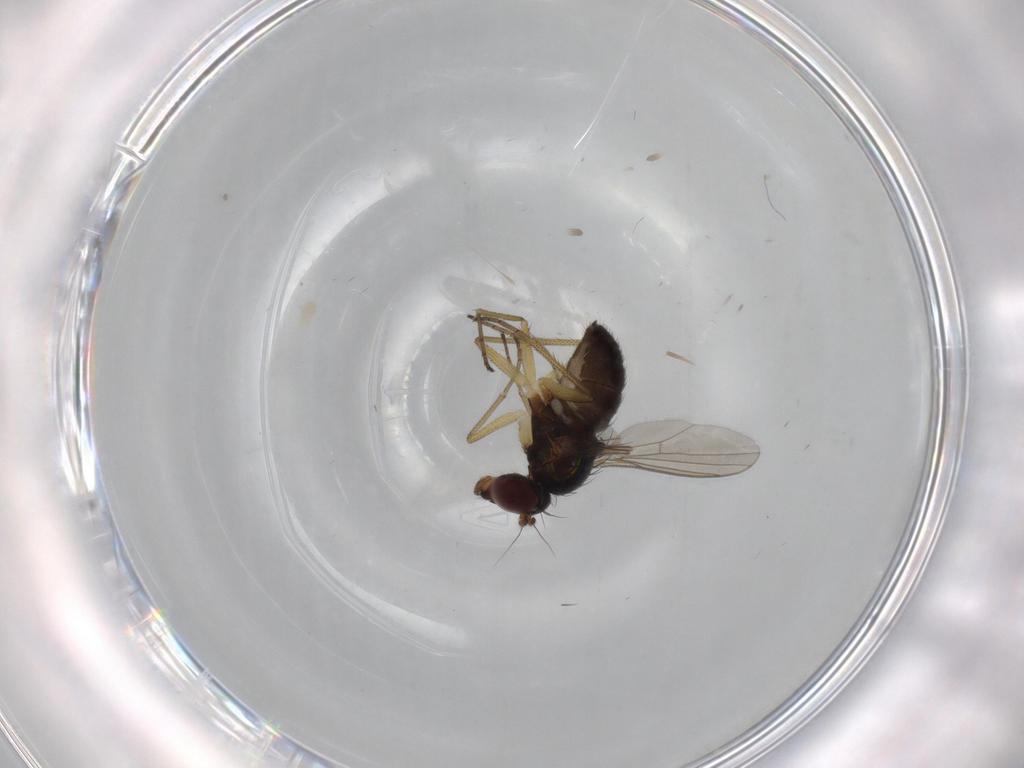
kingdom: Animalia
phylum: Arthropoda
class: Insecta
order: Diptera
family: Dolichopodidae
